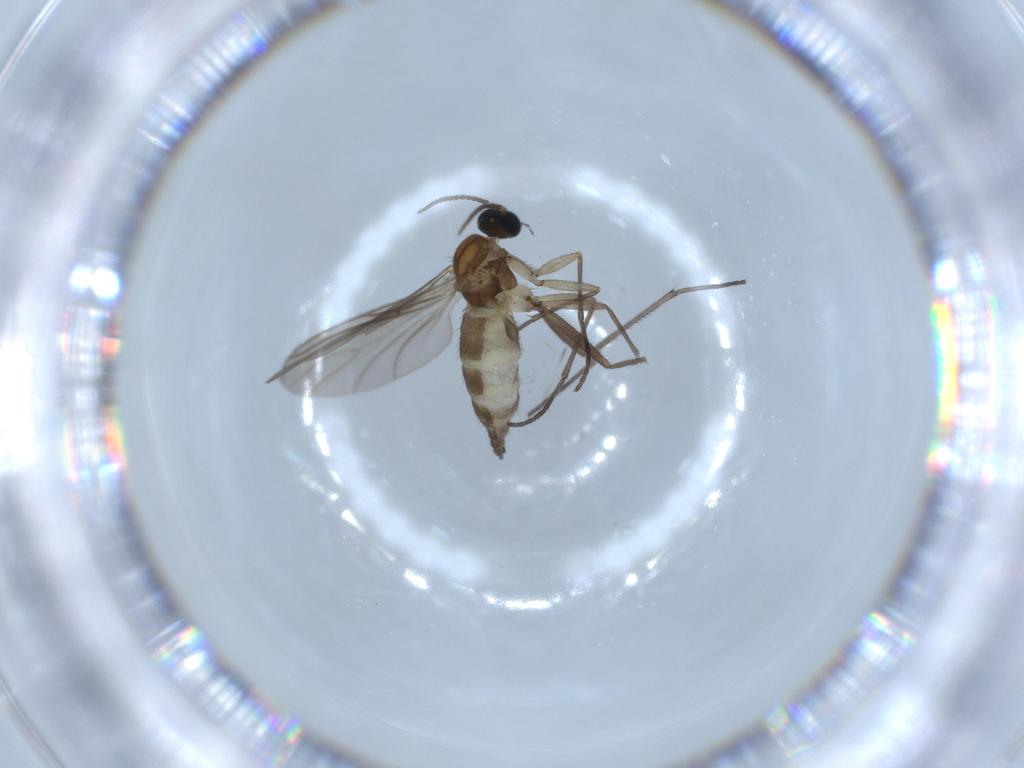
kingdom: Animalia
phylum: Arthropoda
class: Insecta
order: Diptera
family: Sciaridae
